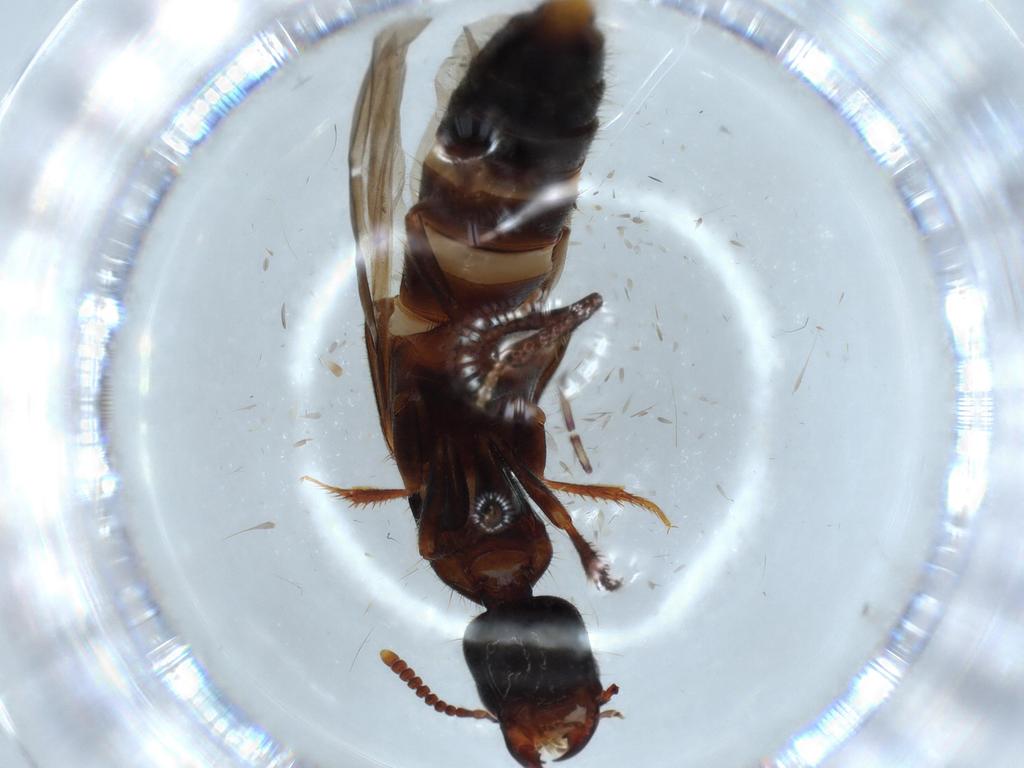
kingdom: Animalia
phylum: Arthropoda
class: Insecta
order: Coleoptera
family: Staphylinidae
